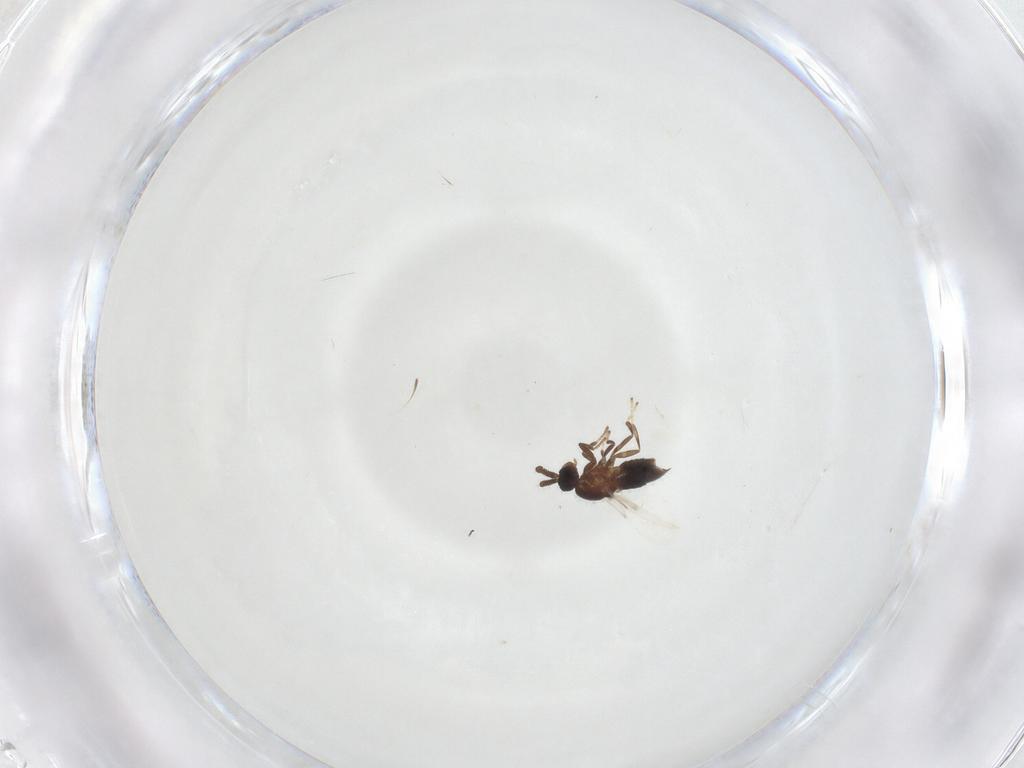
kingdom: Animalia
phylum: Arthropoda
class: Insecta
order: Diptera
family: Scatopsidae
